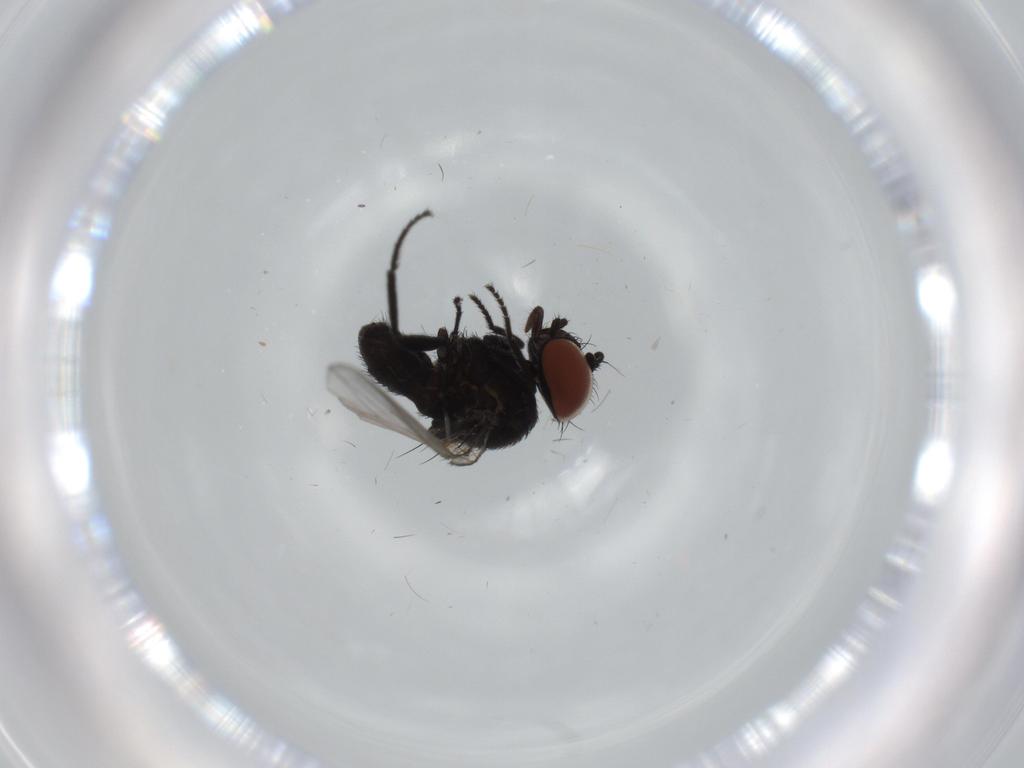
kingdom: Animalia
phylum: Arthropoda
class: Insecta
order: Diptera
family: Milichiidae
